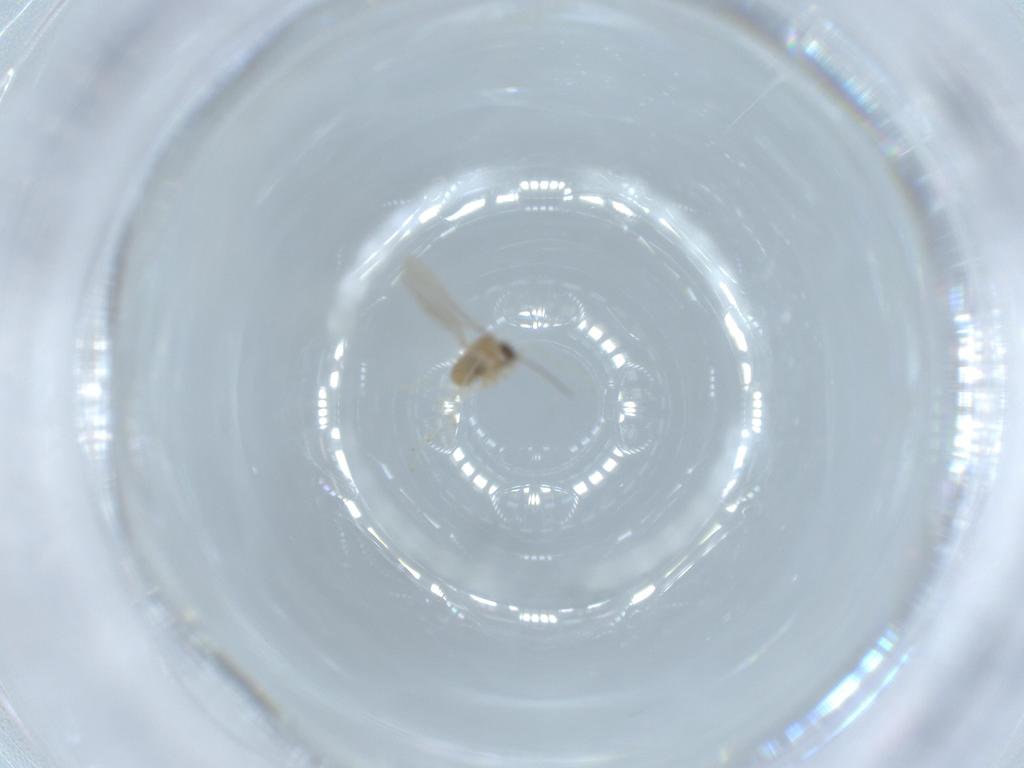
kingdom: Animalia
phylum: Arthropoda
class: Insecta
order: Diptera
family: Cecidomyiidae
